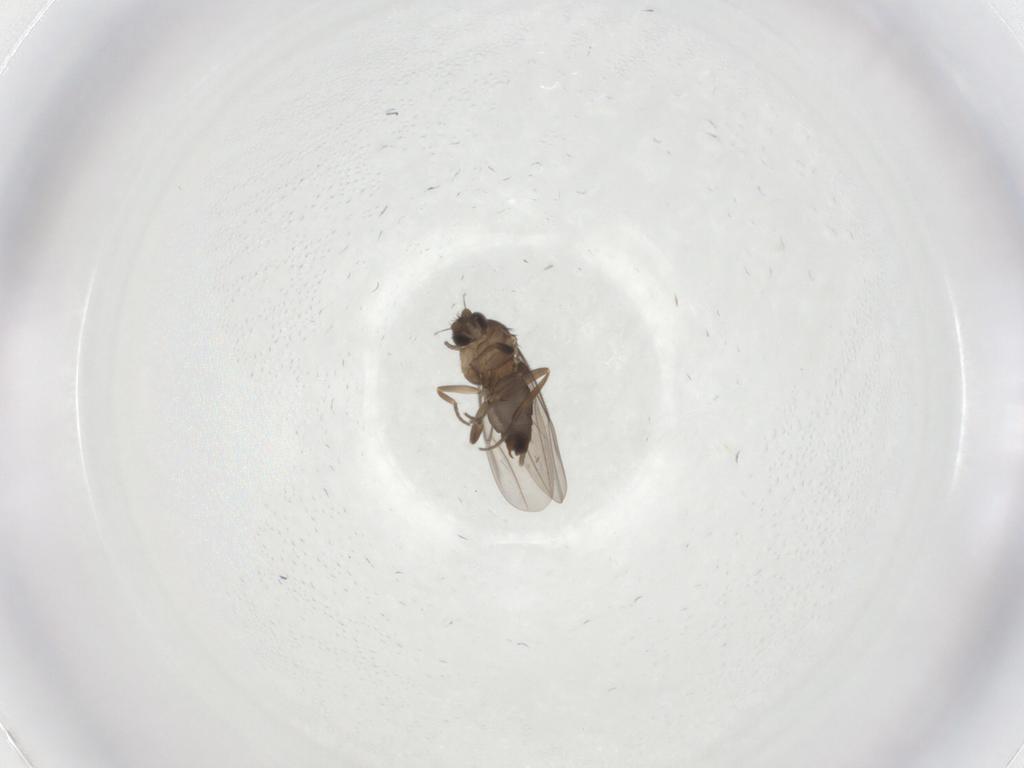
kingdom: Animalia
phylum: Arthropoda
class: Insecta
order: Diptera
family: Phoridae
